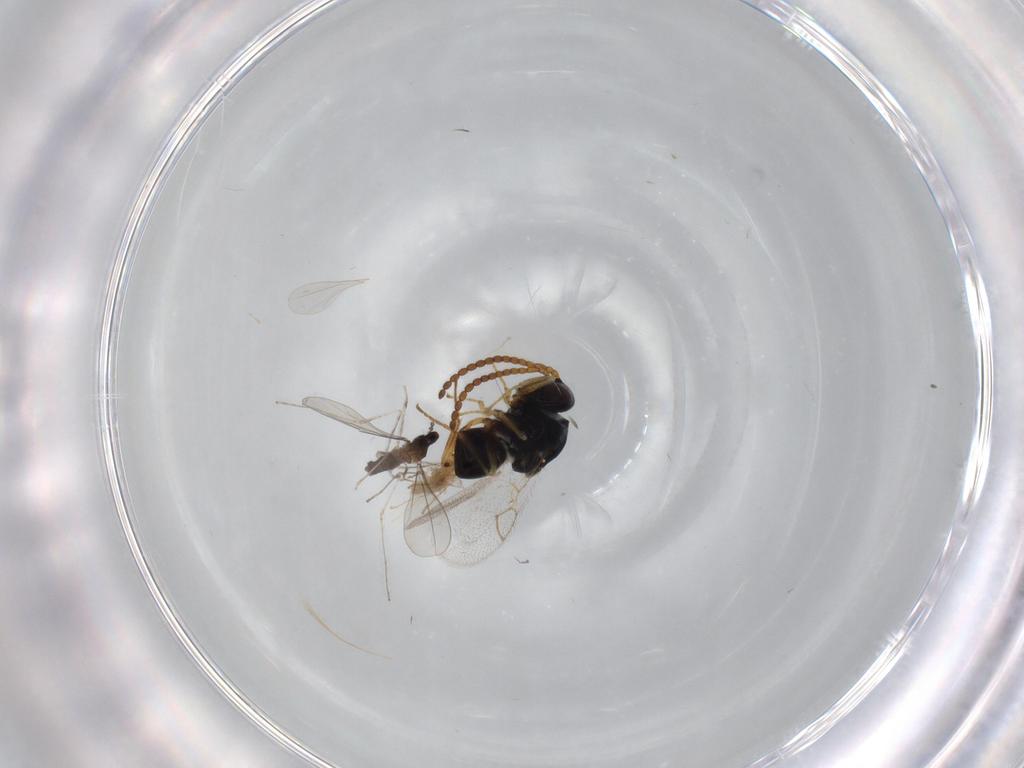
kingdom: Animalia
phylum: Arthropoda
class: Insecta
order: Diptera
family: Cecidomyiidae
